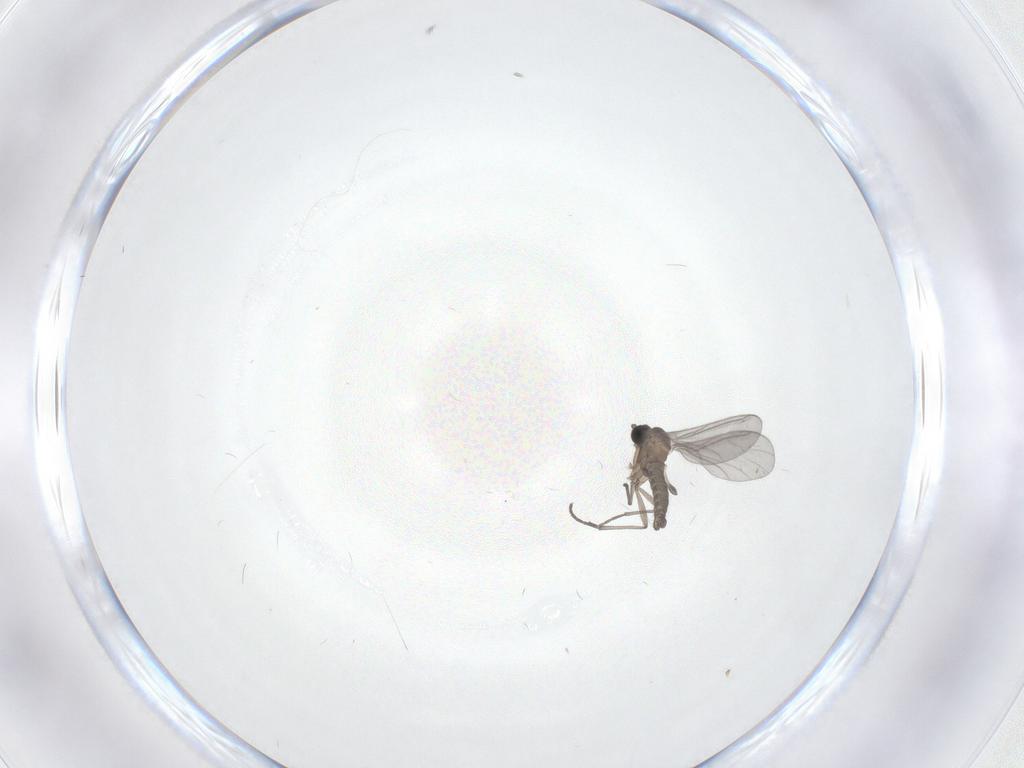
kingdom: Animalia
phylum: Arthropoda
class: Insecta
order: Diptera
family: Sciaridae
